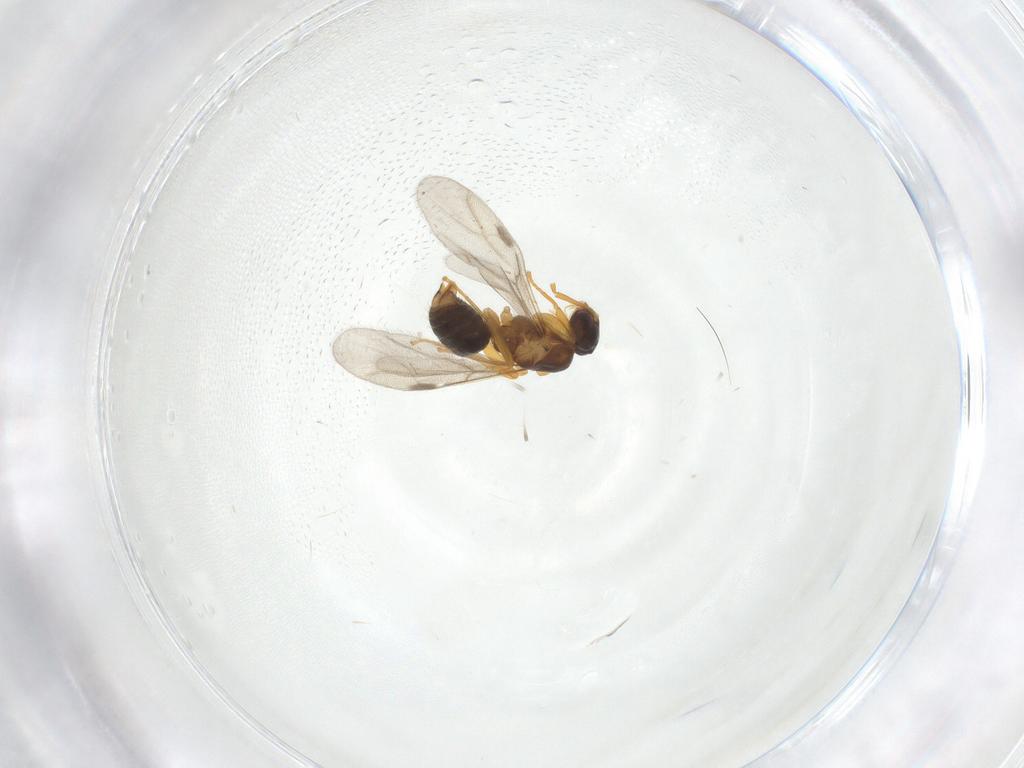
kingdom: Animalia
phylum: Arthropoda
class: Insecta
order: Hymenoptera
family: Formicidae
